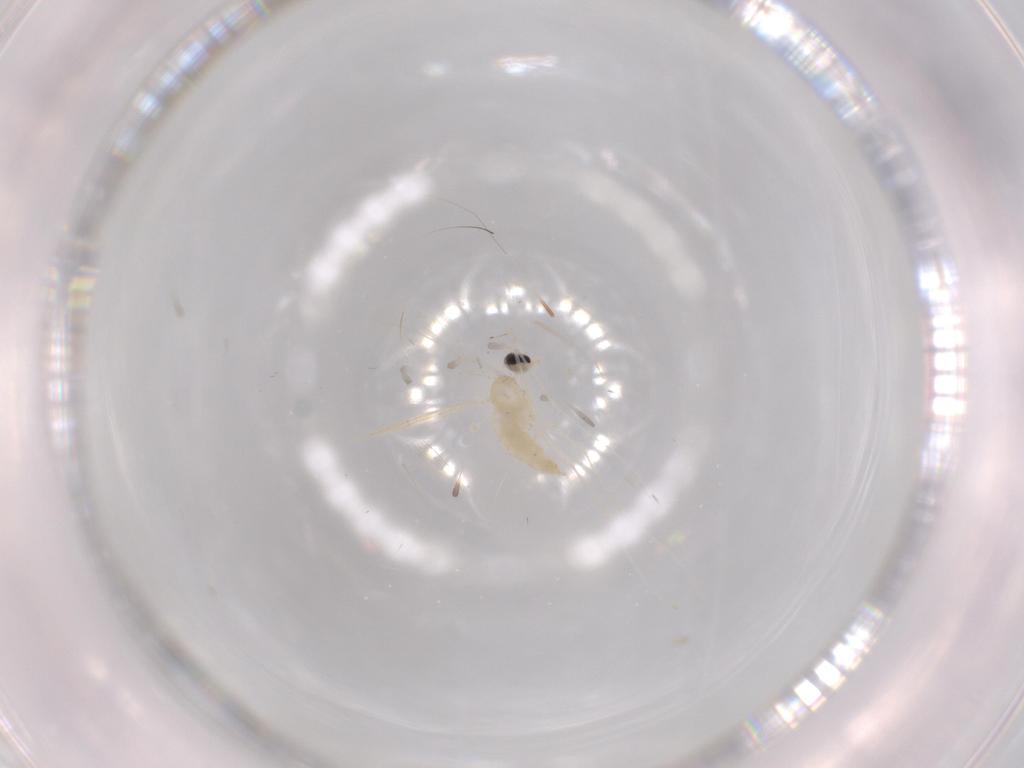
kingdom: Animalia
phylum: Arthropoda
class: Insecta
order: Diptera
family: Cecidomyiidae
